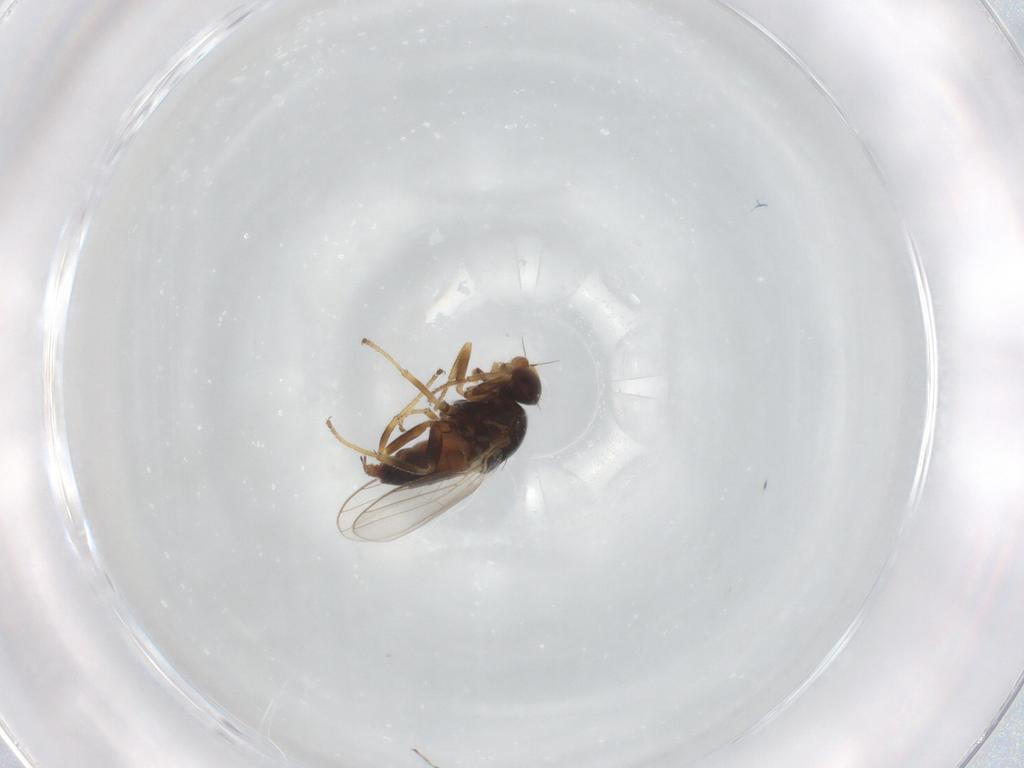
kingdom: Animalia
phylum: Arthropoda
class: Insecta
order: Diptera
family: Chloropidae
